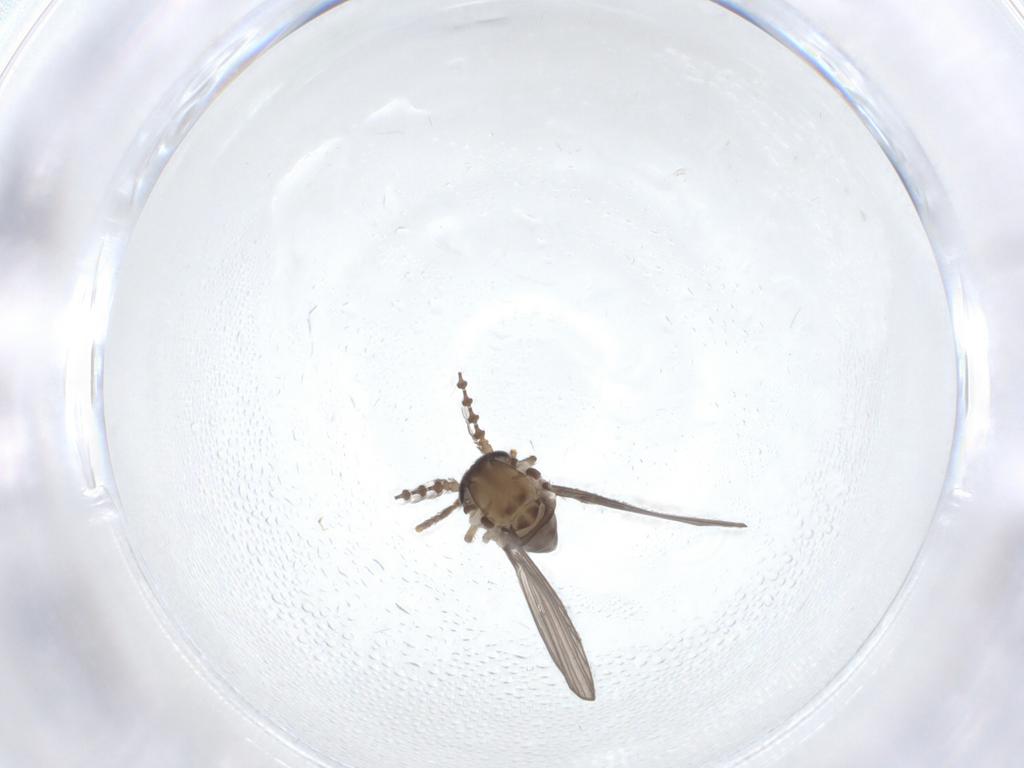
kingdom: Animalia
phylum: Arthropoda
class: Insecta
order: Diptera
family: Psychodidae
